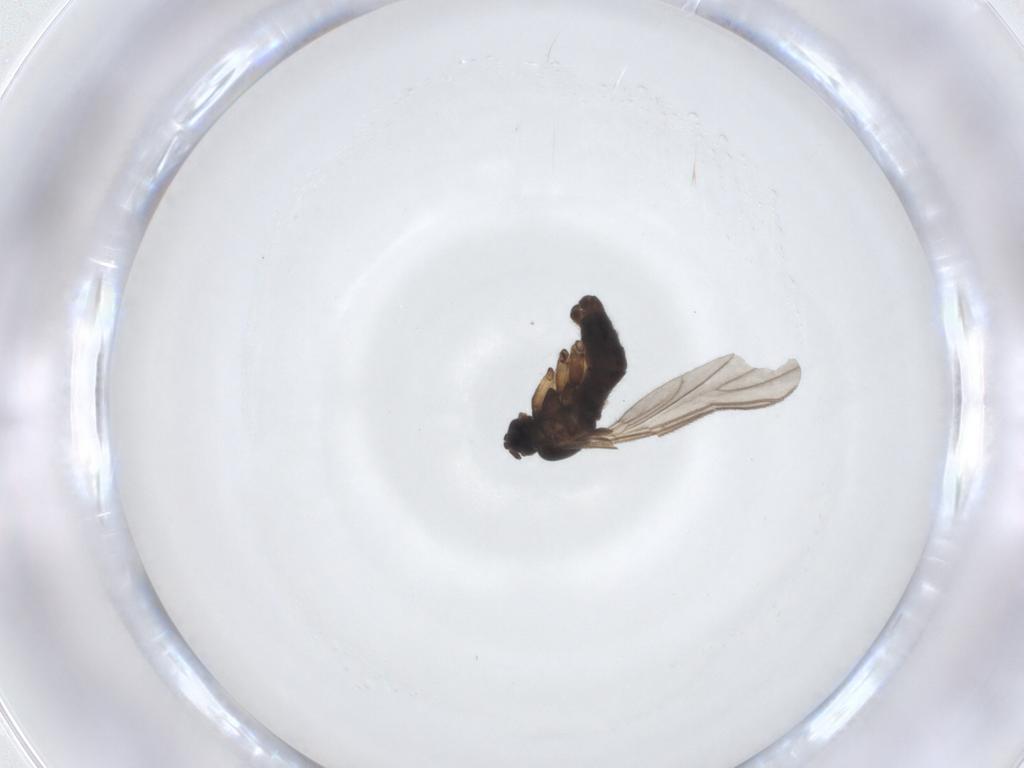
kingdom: Animalia
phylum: Arthropoda
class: Insecta
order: Diptera
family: Sciaridae
